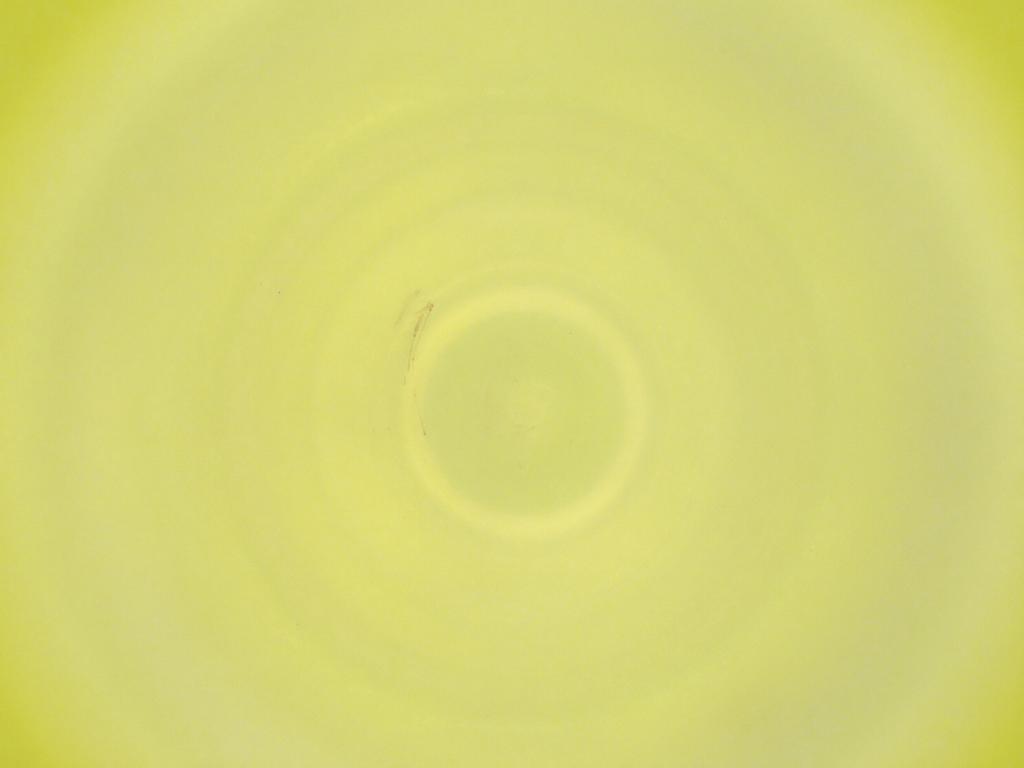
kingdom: Animalia
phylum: Arthropoda
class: Insecta
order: Diptera
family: Cecidomyiidae
